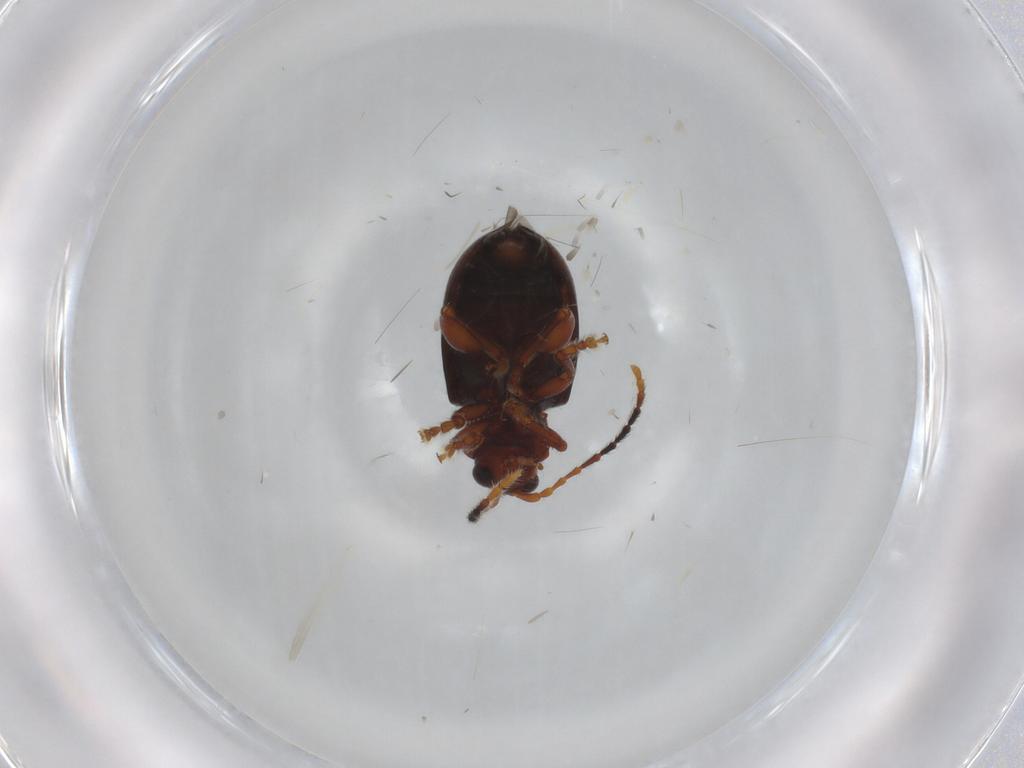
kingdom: Animalia
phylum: Arthropoda
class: Insecta
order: Coleoptera
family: Chrysomelidae
